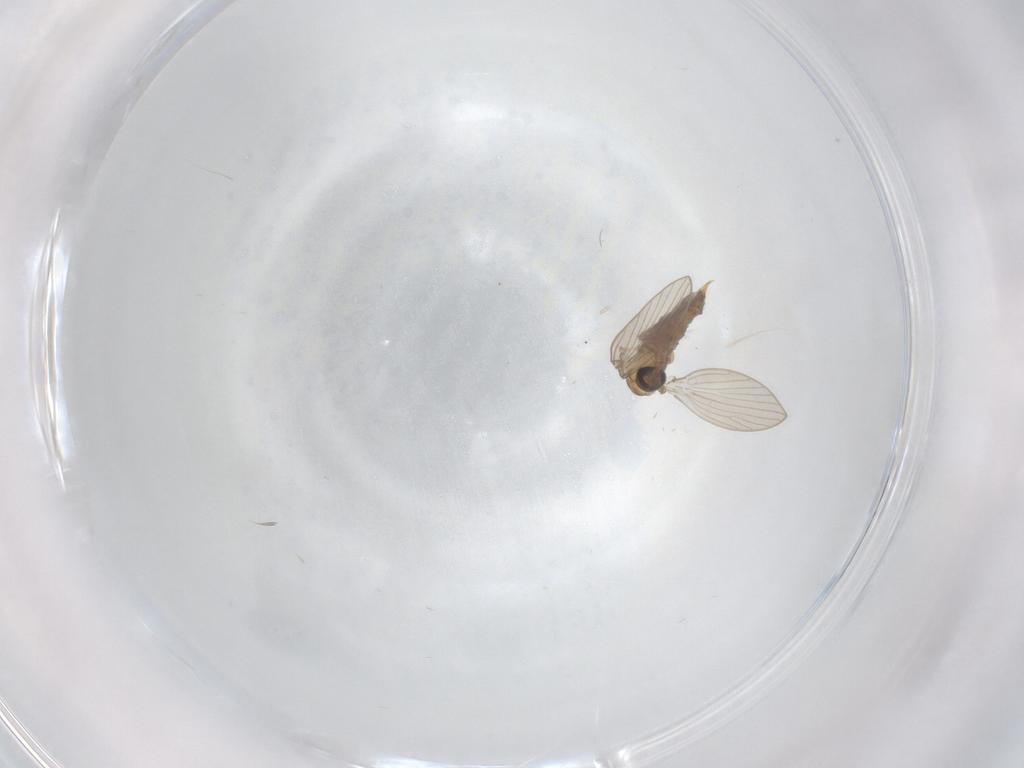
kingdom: Animalia
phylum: Arthropoda
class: Insecta
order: Diptera
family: Psychodidae
